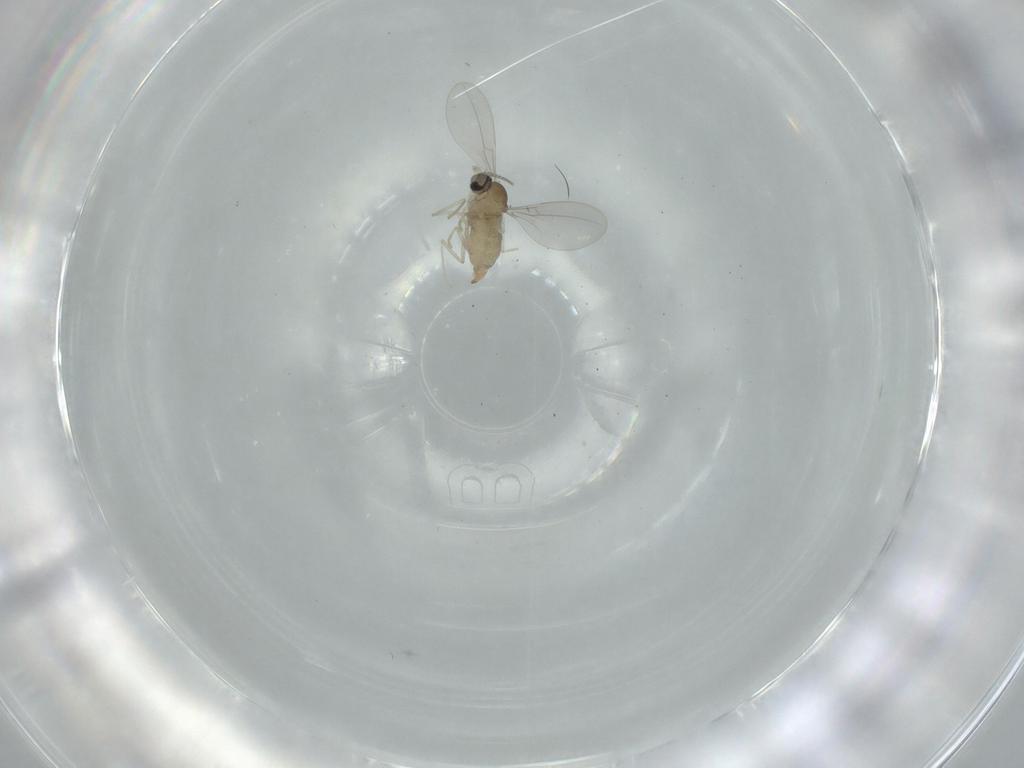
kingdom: Animalia
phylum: Arthropoda
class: Insecta
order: Diptera
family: Cecidomyiidae
